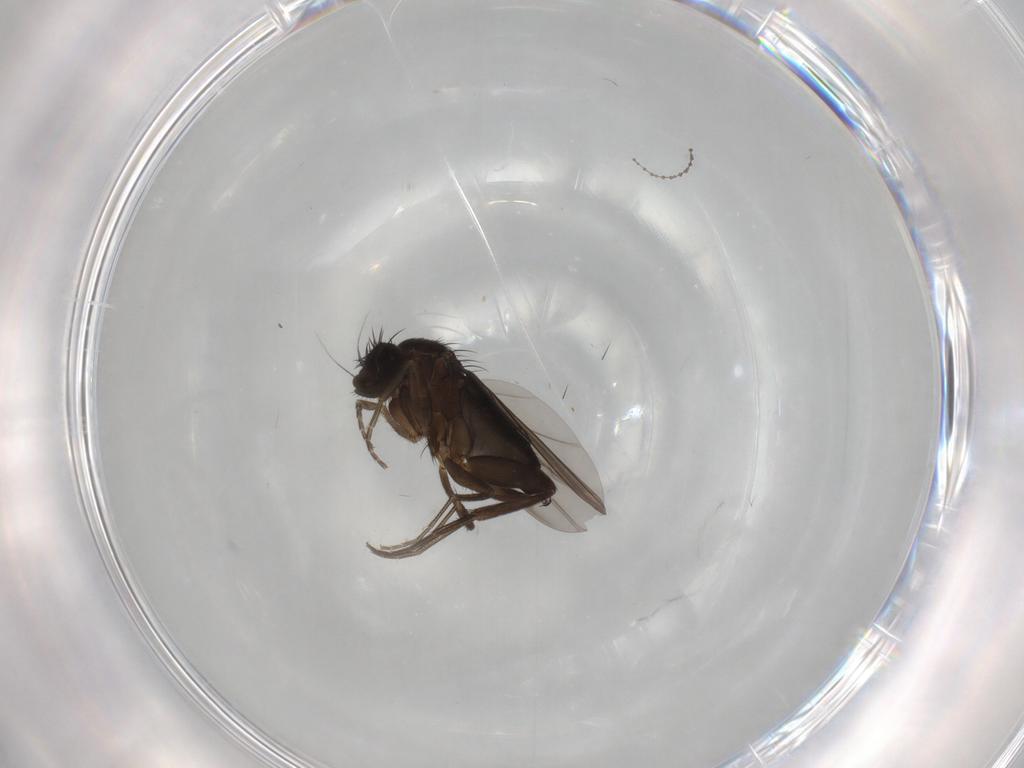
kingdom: Animalia
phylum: Arthropoda
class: Insecta
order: Diptera
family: Phoridae
